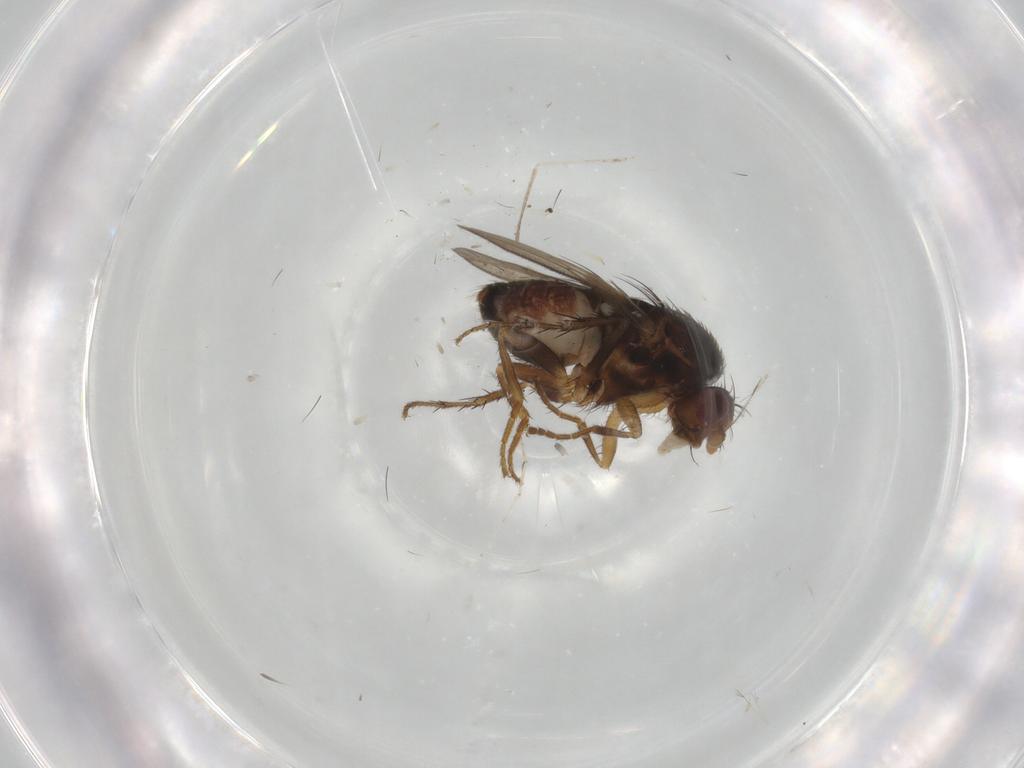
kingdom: Animalia
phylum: Arthropoda
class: Insecta
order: Diptera
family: Sphaeroceridae
